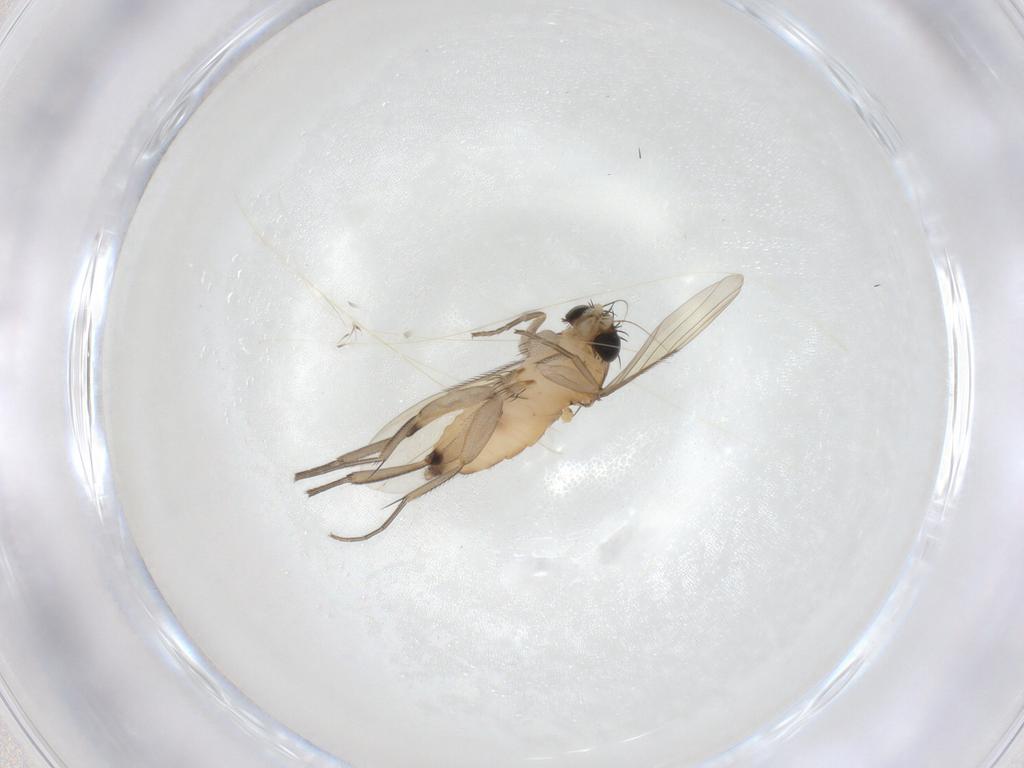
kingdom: Animalia
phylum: Arthropoda
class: Insecta
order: Diptera
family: Phoridae
